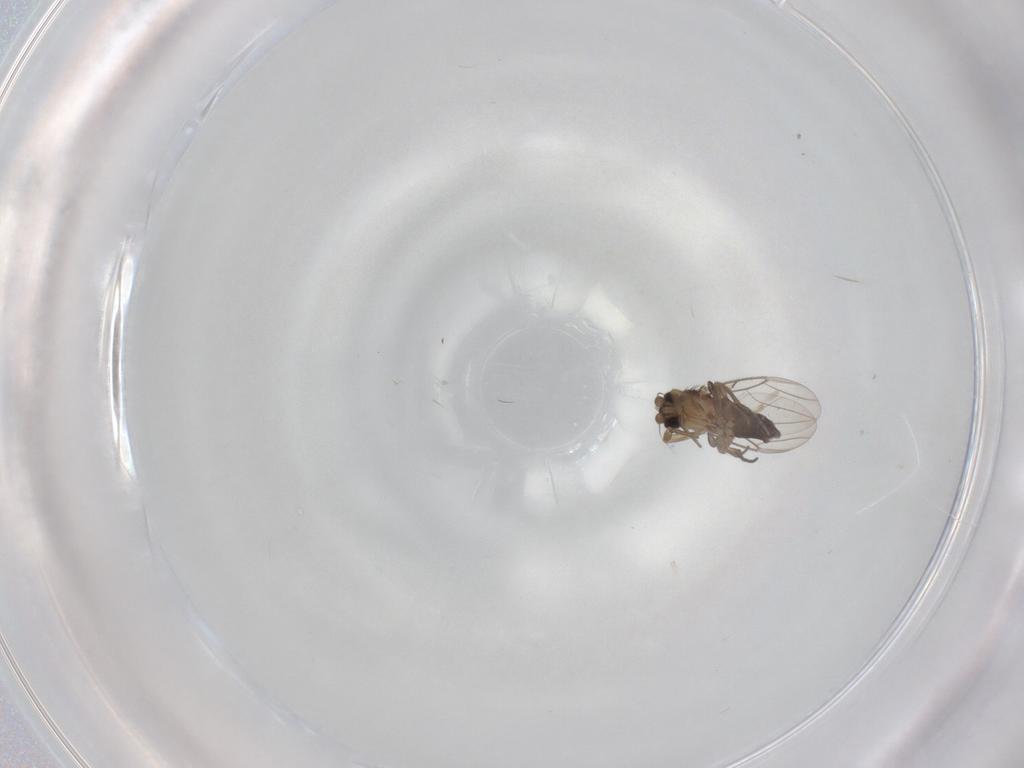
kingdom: Animalia
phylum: Arthropoda
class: Insecta
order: Diptera
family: Phoridae
